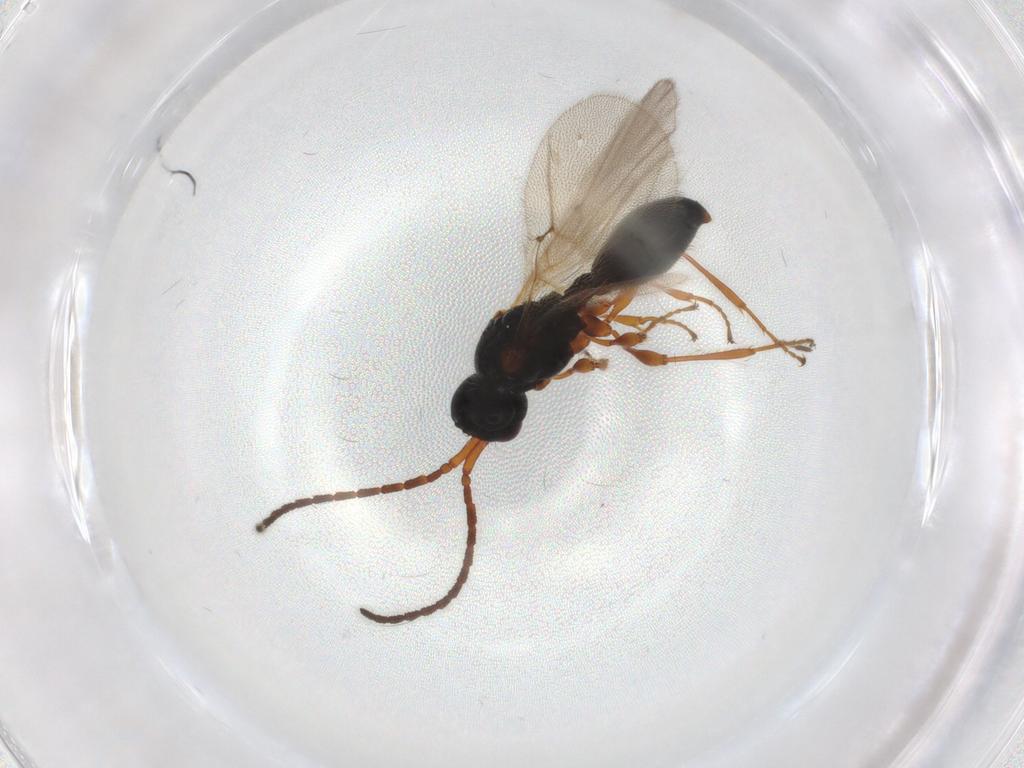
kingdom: Animalia
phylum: Arthropoda
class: Insecta
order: Hymenoptera
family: Diapriidae
